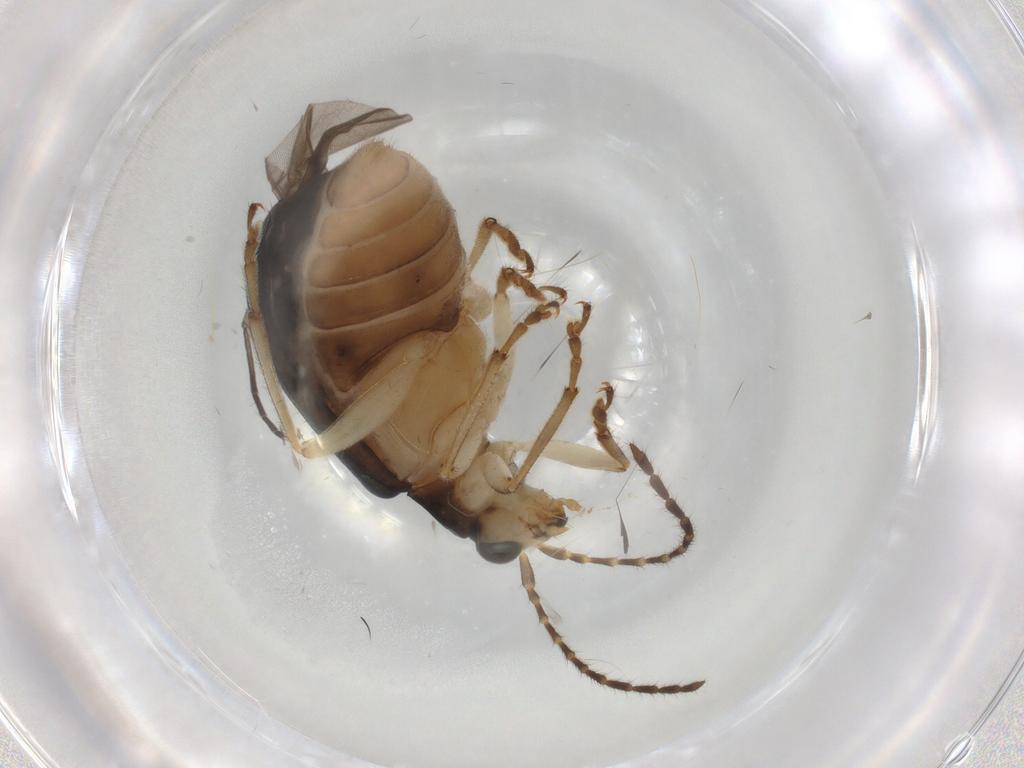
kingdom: Animalia
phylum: Arthropoda
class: Insecta
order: Coleoptera
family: Chrysomelidae
